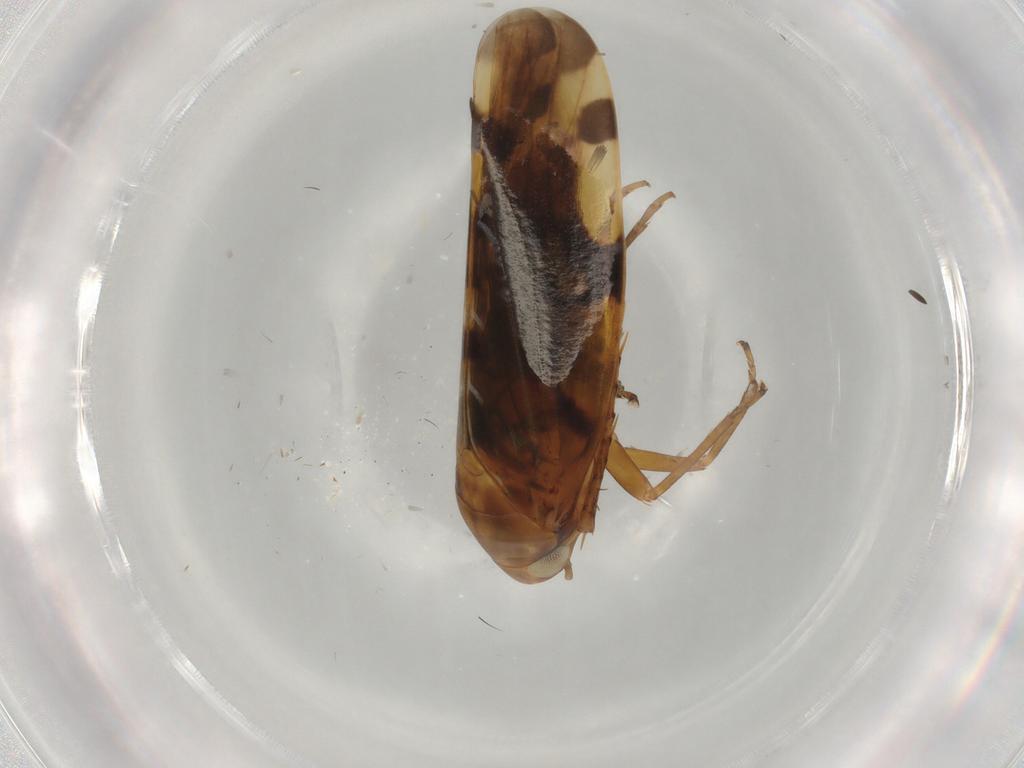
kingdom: Animalia
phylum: Arthropoda
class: Insecta
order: Hemiptera
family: Cicadellidae
